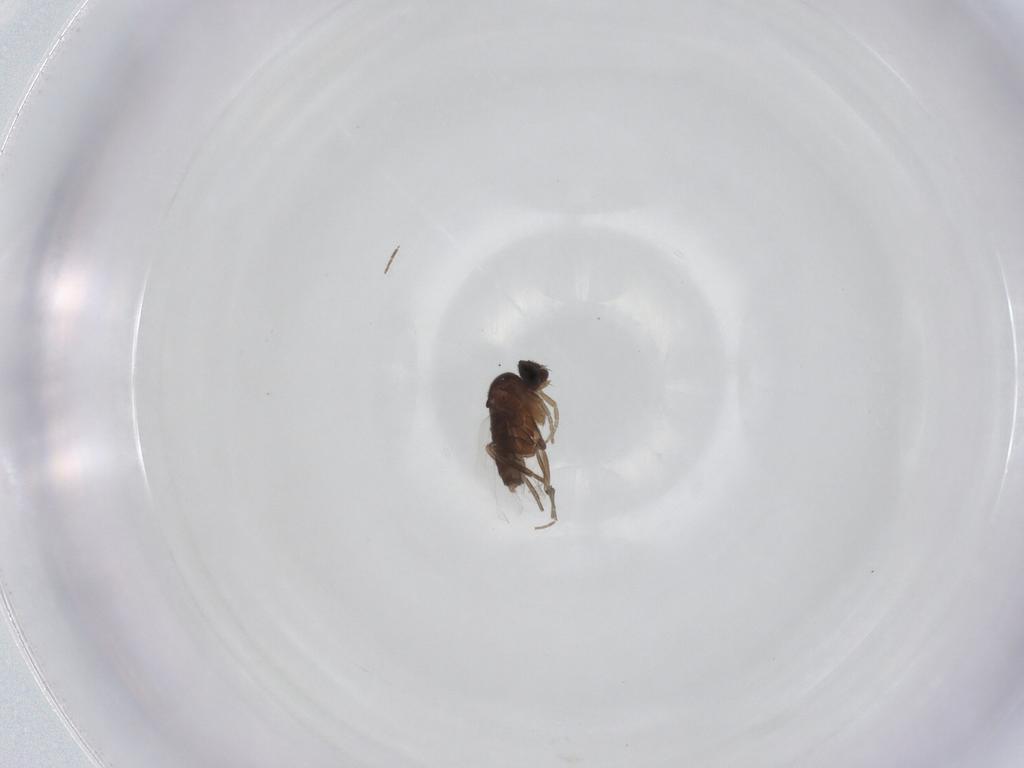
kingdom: Animalia
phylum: Arthropoda
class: Insecta
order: Diptera
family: Phoridae
